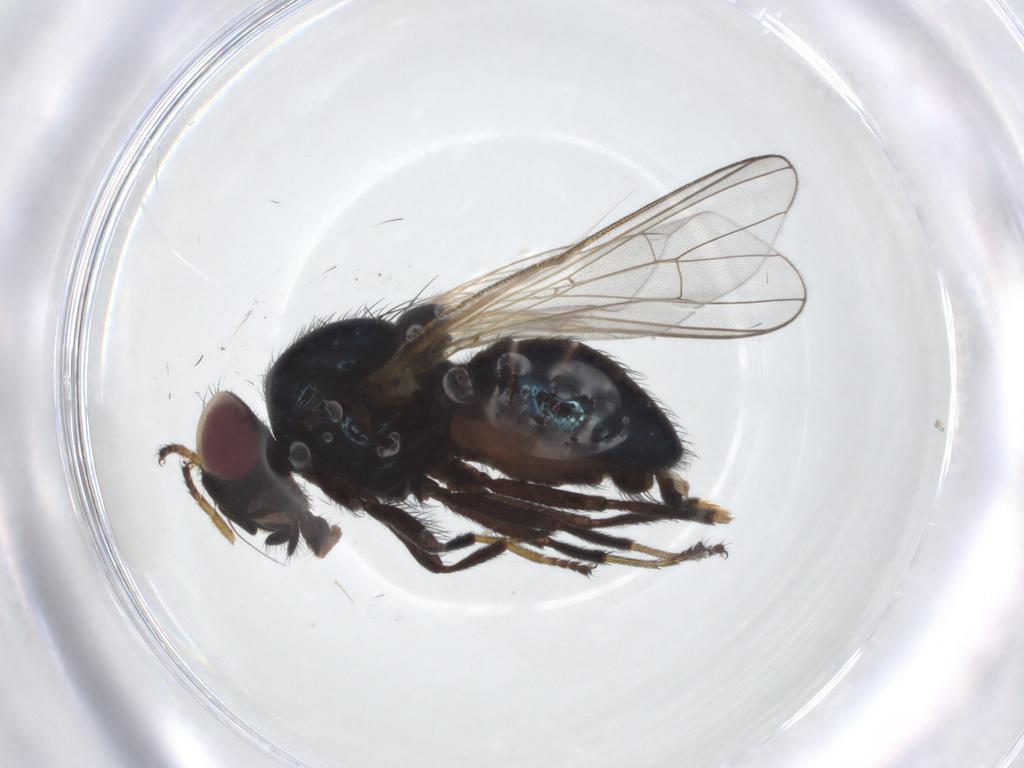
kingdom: Animalia
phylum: Arthropoda
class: Insecta
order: Diptera
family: Lonchaeidae
